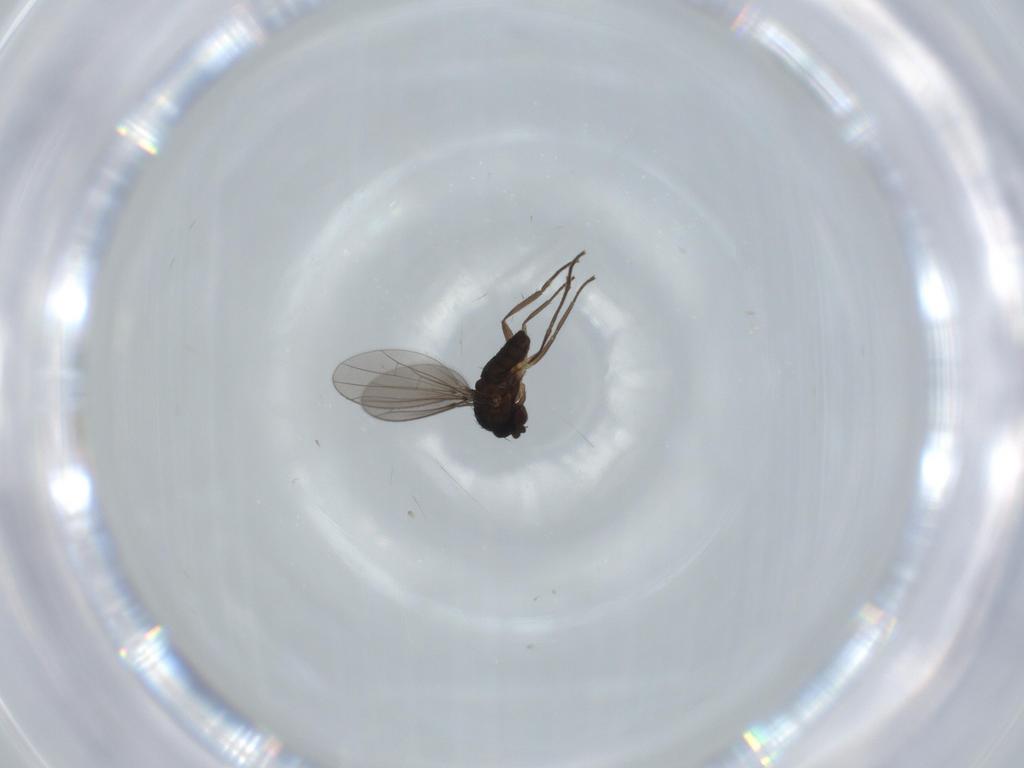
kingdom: Animalia
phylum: Arthropoda
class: Insecta
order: Diptera
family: Dolichopodidae
